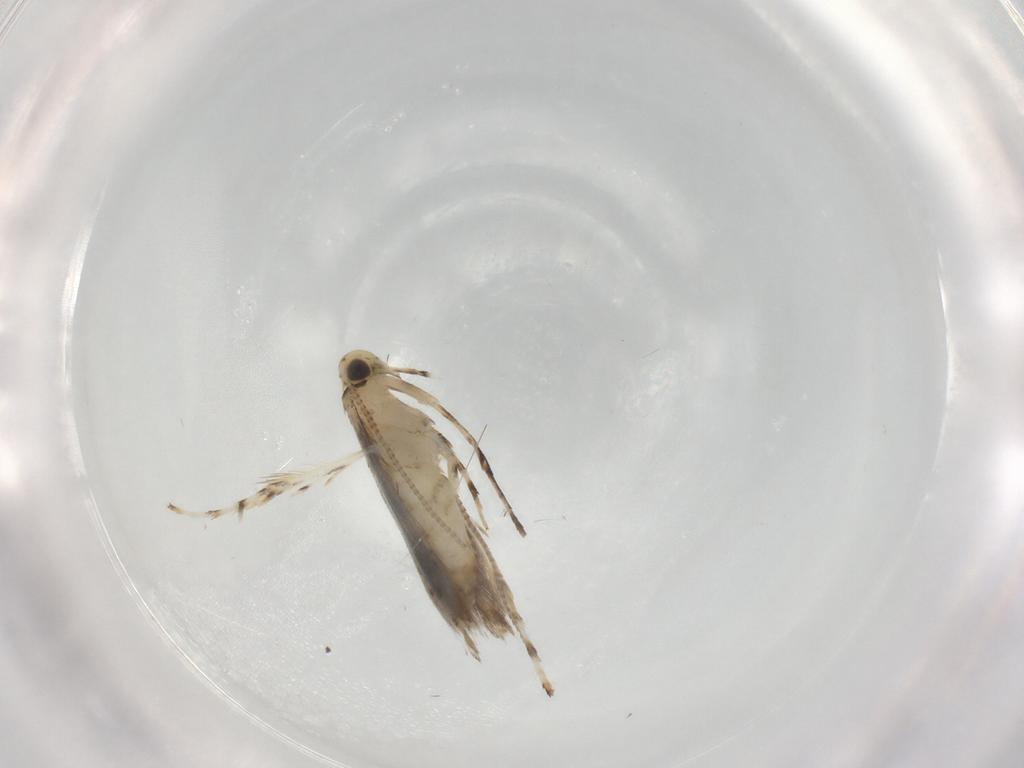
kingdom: Animalia
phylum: Arthropoda
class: Insecta
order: Lepidoptera
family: Gracillariidae
